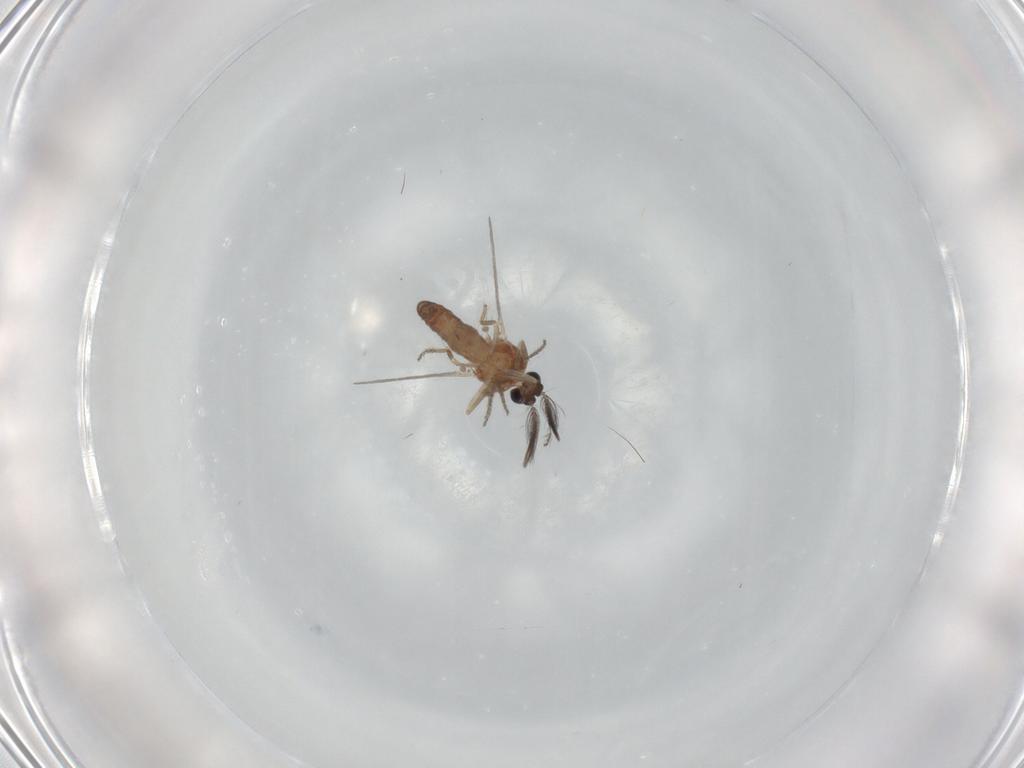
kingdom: Animalia
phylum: Arthropoda
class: Insecta
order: Diptera
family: Ceratopogonidae
